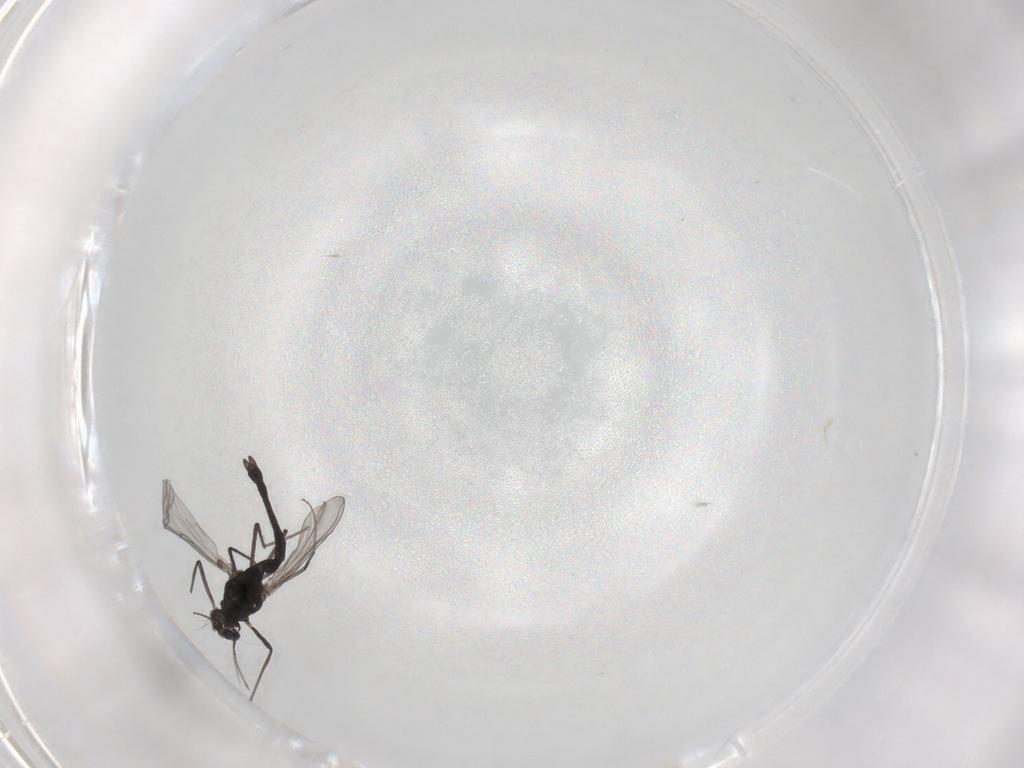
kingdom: Animalia
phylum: Arthropoda
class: Insecta
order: Diptera
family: Chironomidae
